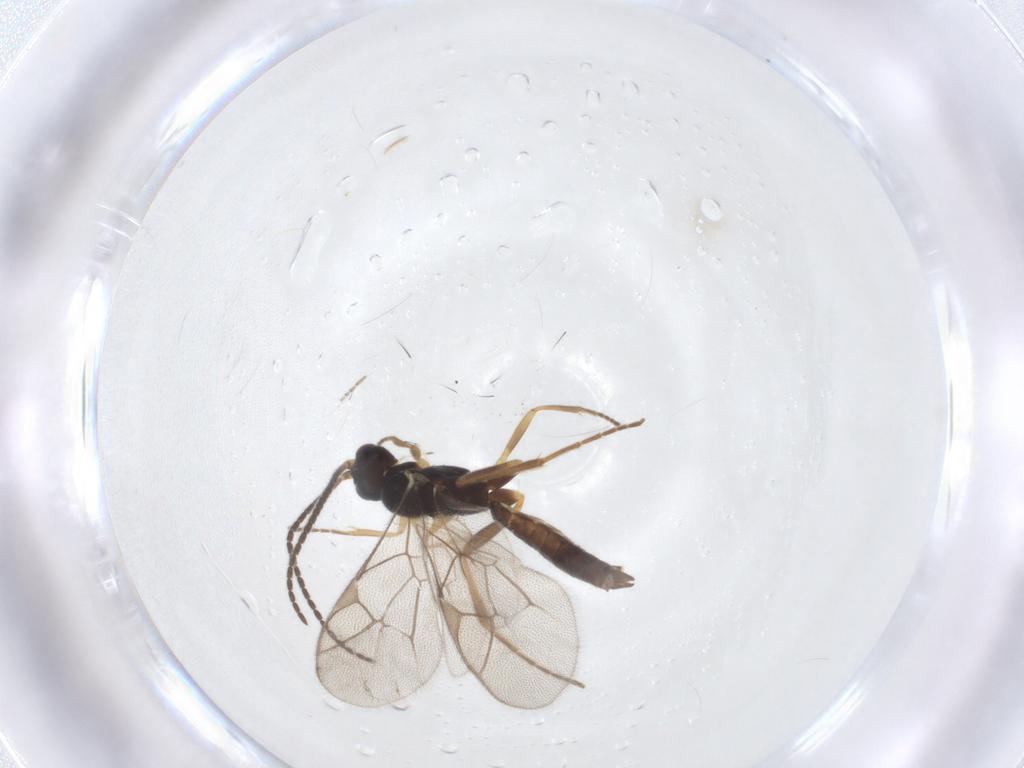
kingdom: Animalia
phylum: Arthropoda
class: Insecta
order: Hymenoptera
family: Ichneumonidae
